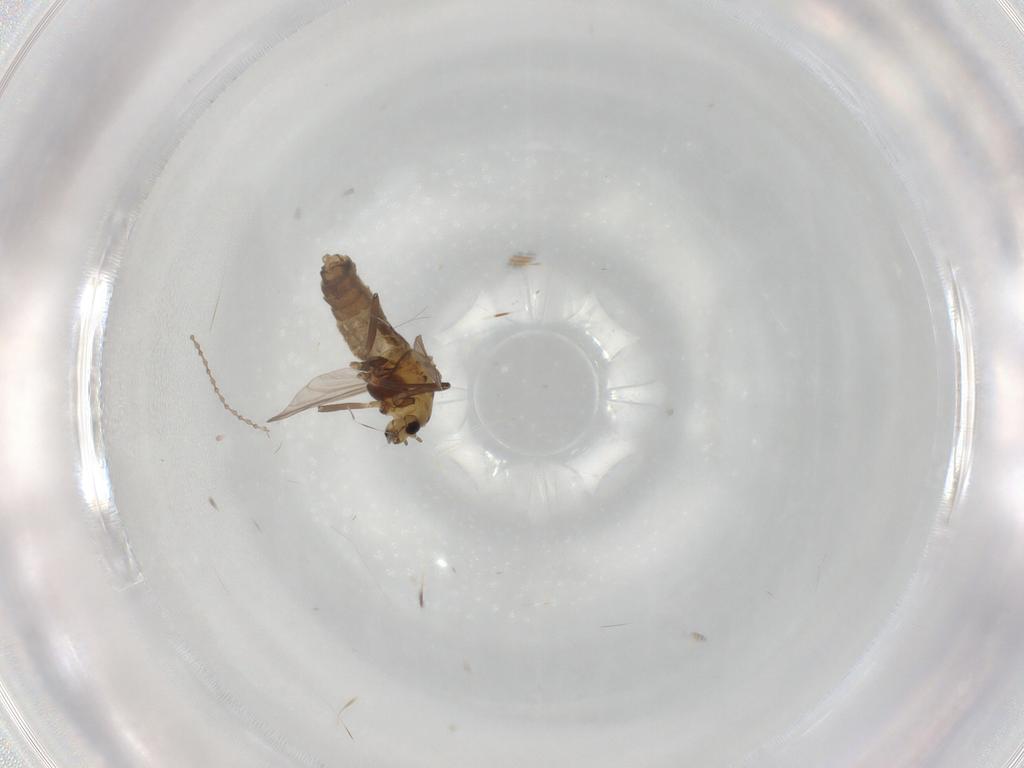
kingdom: Animalia
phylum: Arthropoda
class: Insecta
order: Diptera
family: Chironomidae
